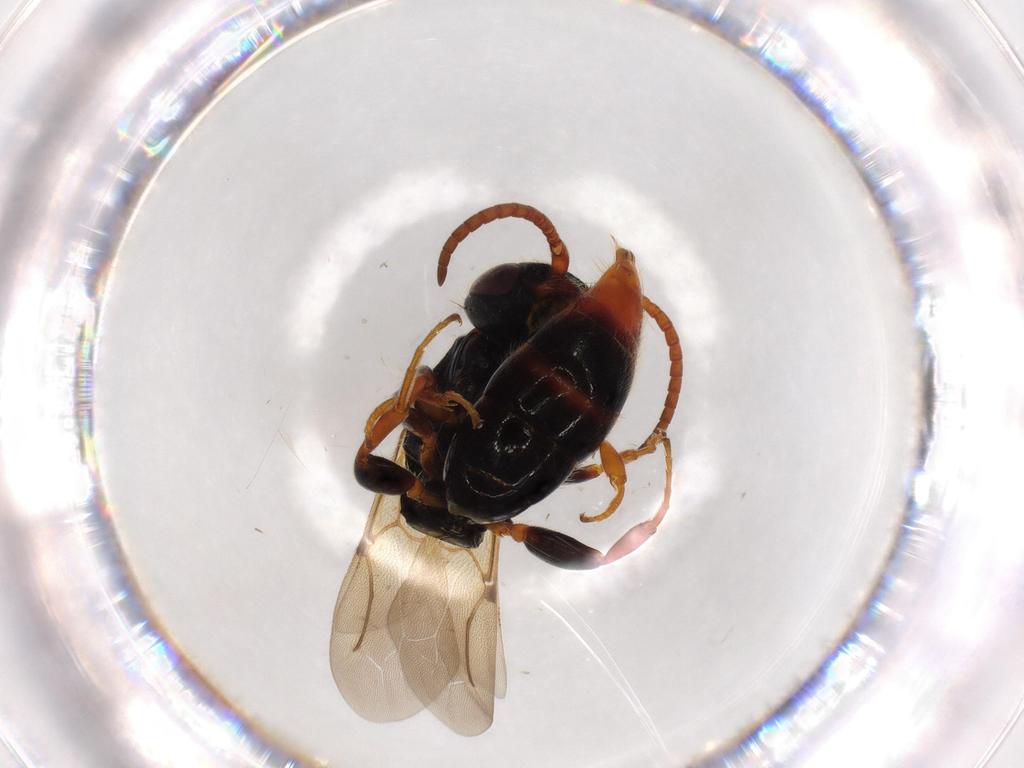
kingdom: Animalia
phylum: Arthropoda
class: Insecta
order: Hymenoptera
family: Bethylidae
